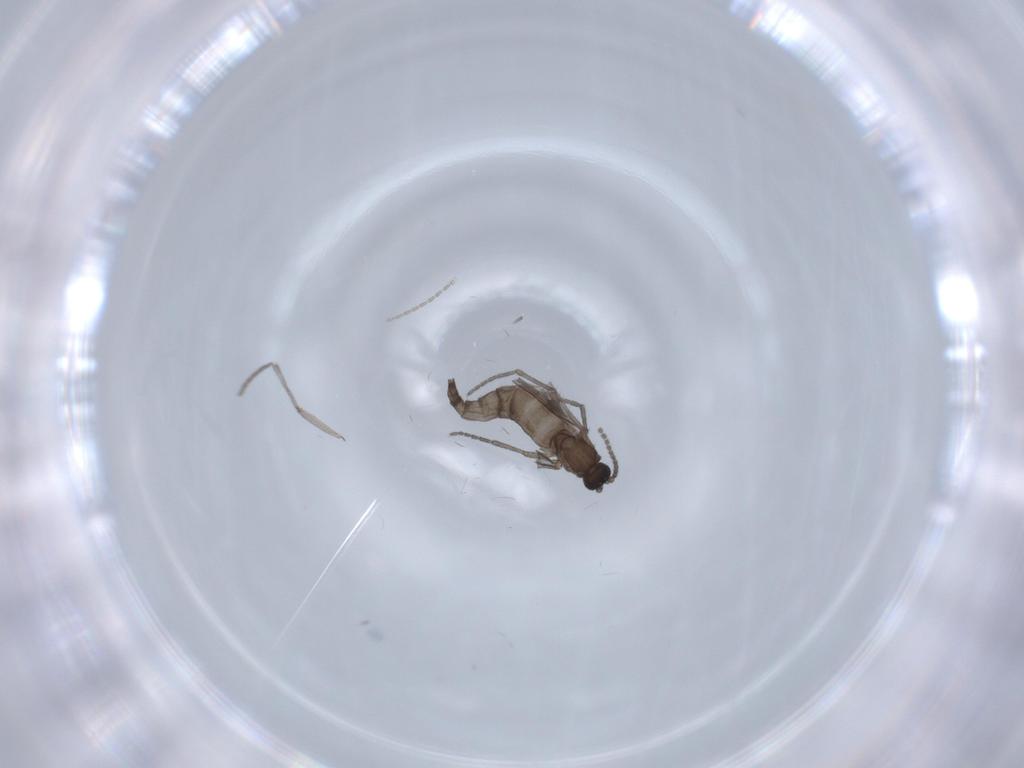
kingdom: Animalia
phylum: Arthropoda
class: Insecta
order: Diptera
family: Sciaridae
